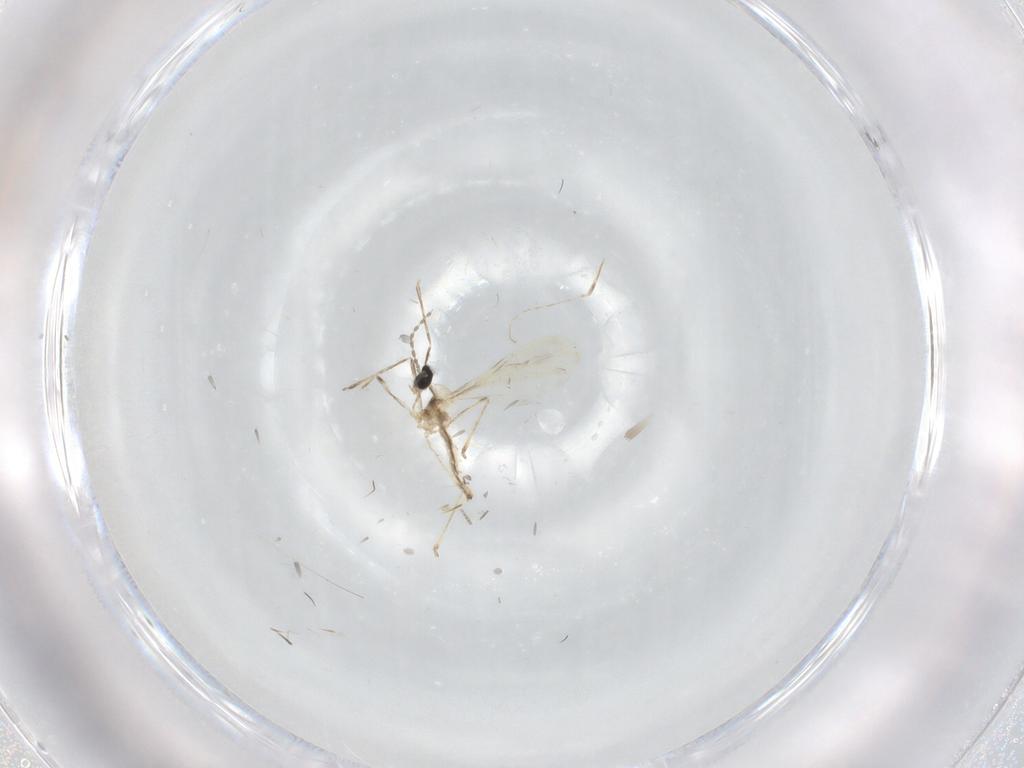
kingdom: Animalia
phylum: Arthropoda
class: Insecta
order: Diptera
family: Cecidomyiidae
